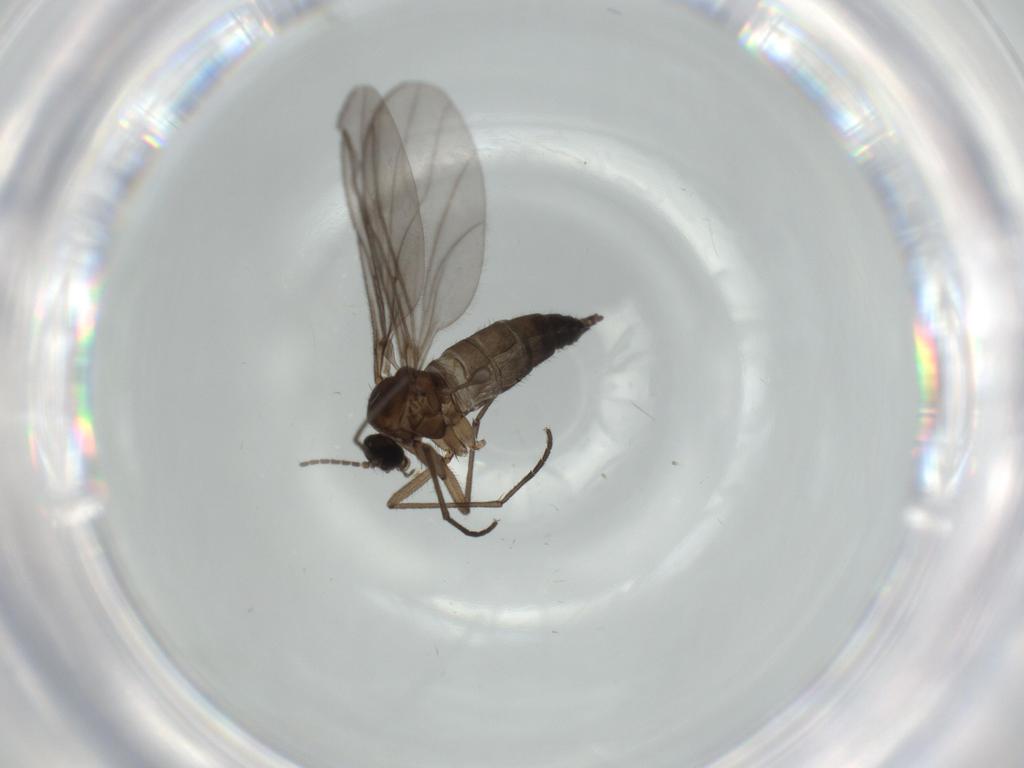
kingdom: Animalia
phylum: Arthropoda
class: Insecta
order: Diptera
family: Sciaridae
